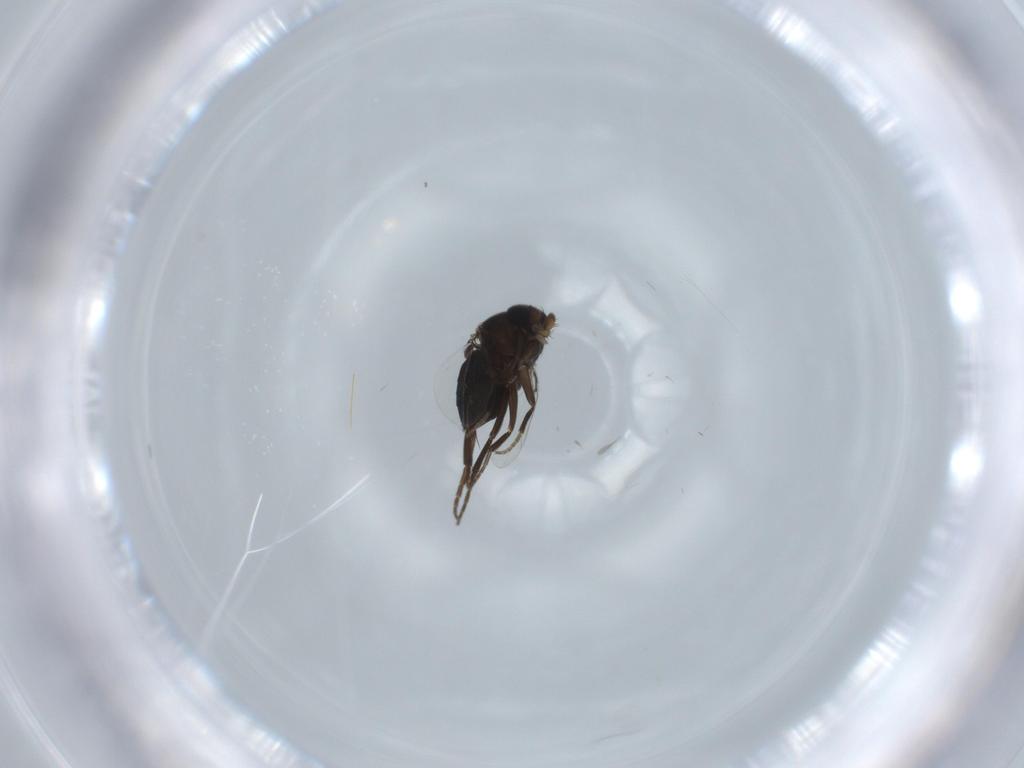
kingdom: Animalia
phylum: Arthropoda
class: Insecta
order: Diptera
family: Phoridae
